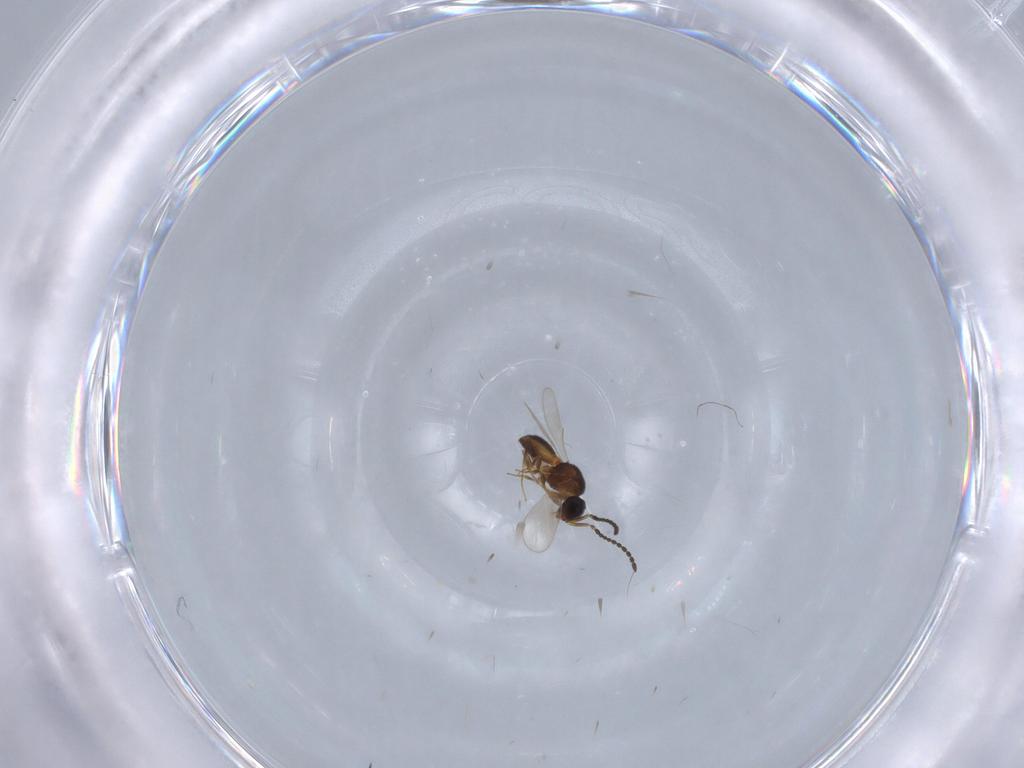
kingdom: Animalia
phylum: Arthropoda
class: Insecta
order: Hymenoptera
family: Scelionidae
